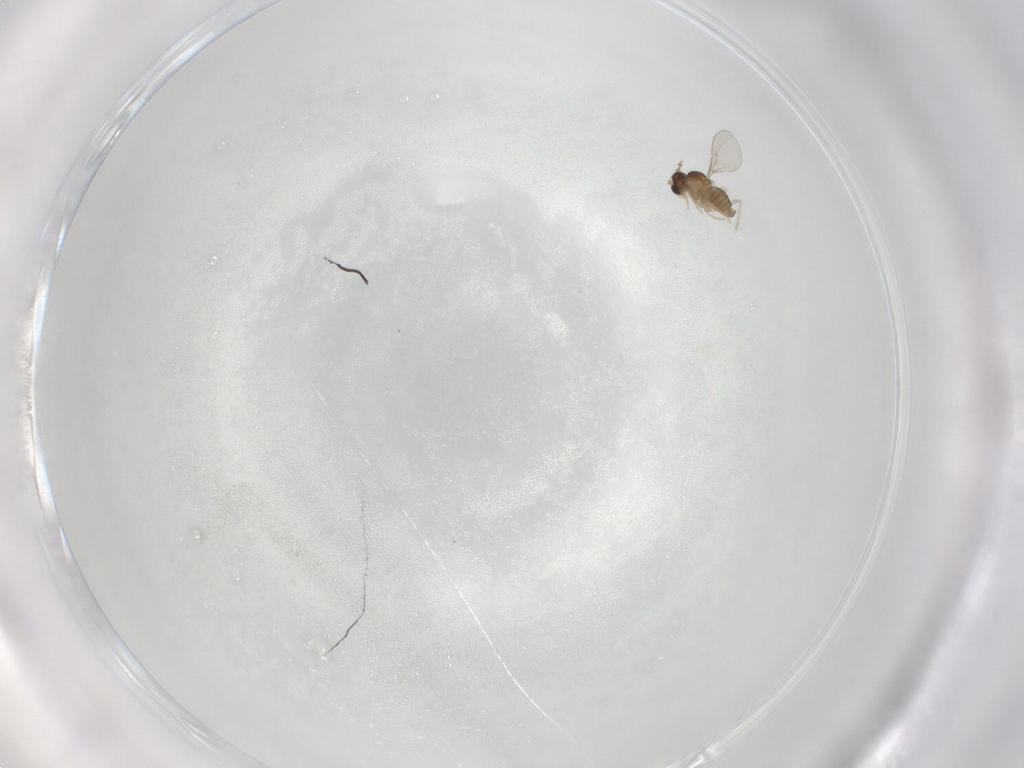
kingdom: Animalia
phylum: Arthropoda
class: Insecta
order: Diptera
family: Cecidomyiidae
